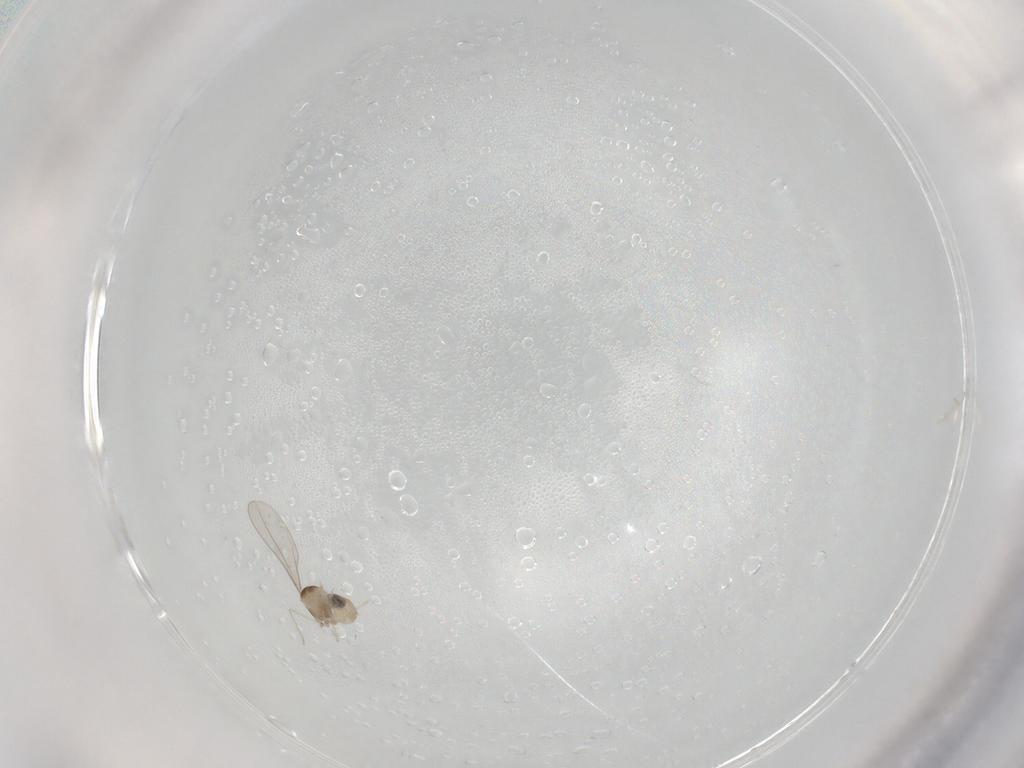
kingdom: Animalia
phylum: Arthropoda
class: Insecta
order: Diptera
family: Cecidomyiidae
